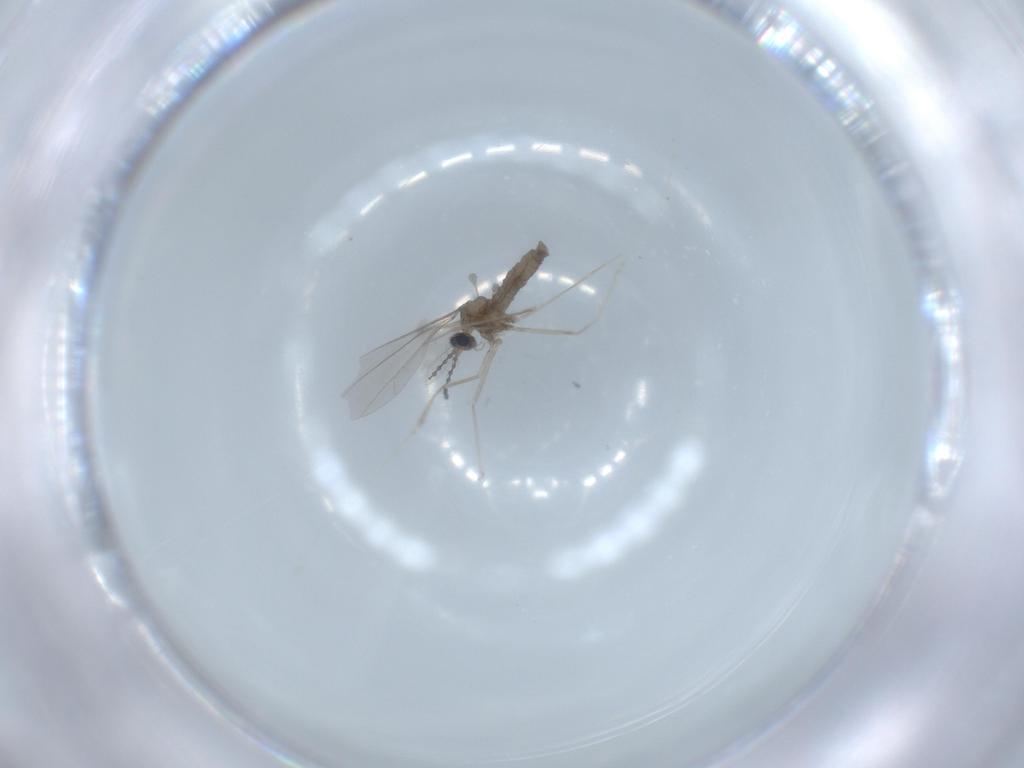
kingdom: Animalia
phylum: Arthropoda
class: Insecta
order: Diptera
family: Cecidomyiidae
